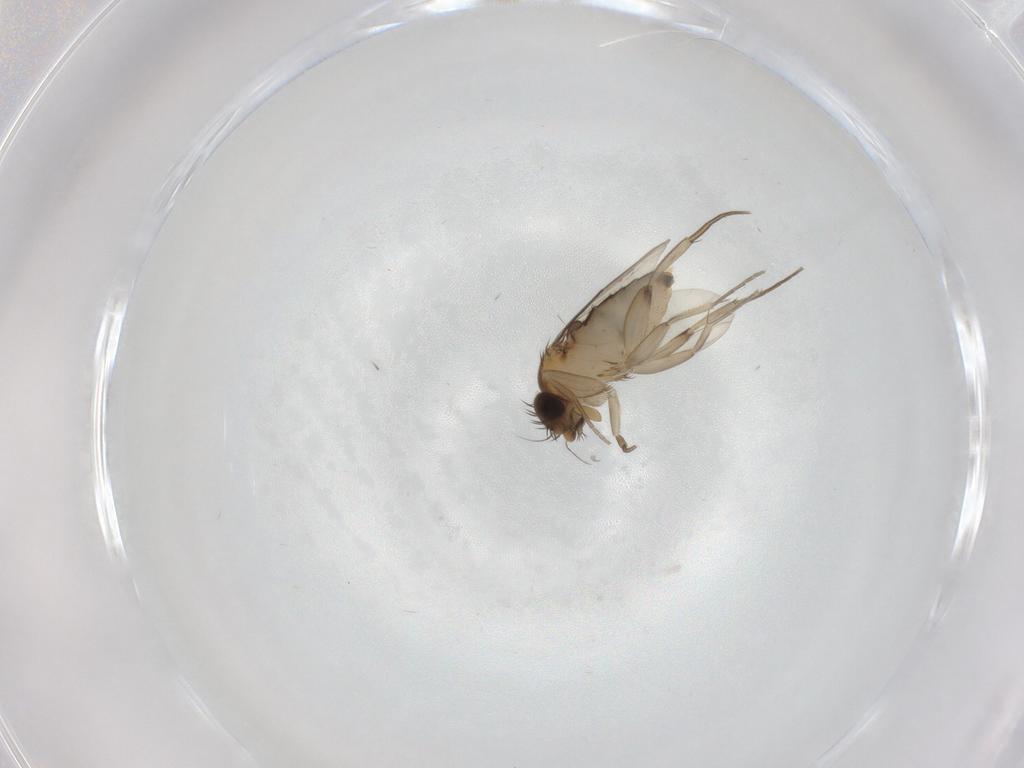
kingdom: Animalia
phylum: Arthropoda
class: Insecta
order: Diptera
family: Phoridae
